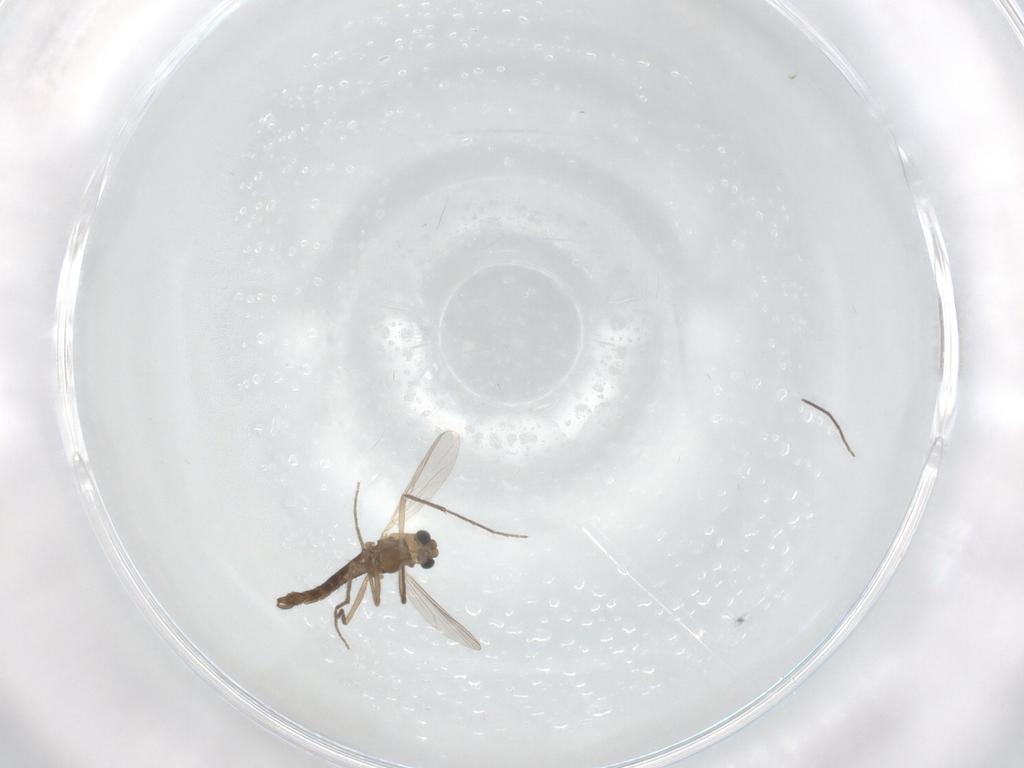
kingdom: Animalia
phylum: Arthropoda
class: Insecta
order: Diptera
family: Chironomidae
